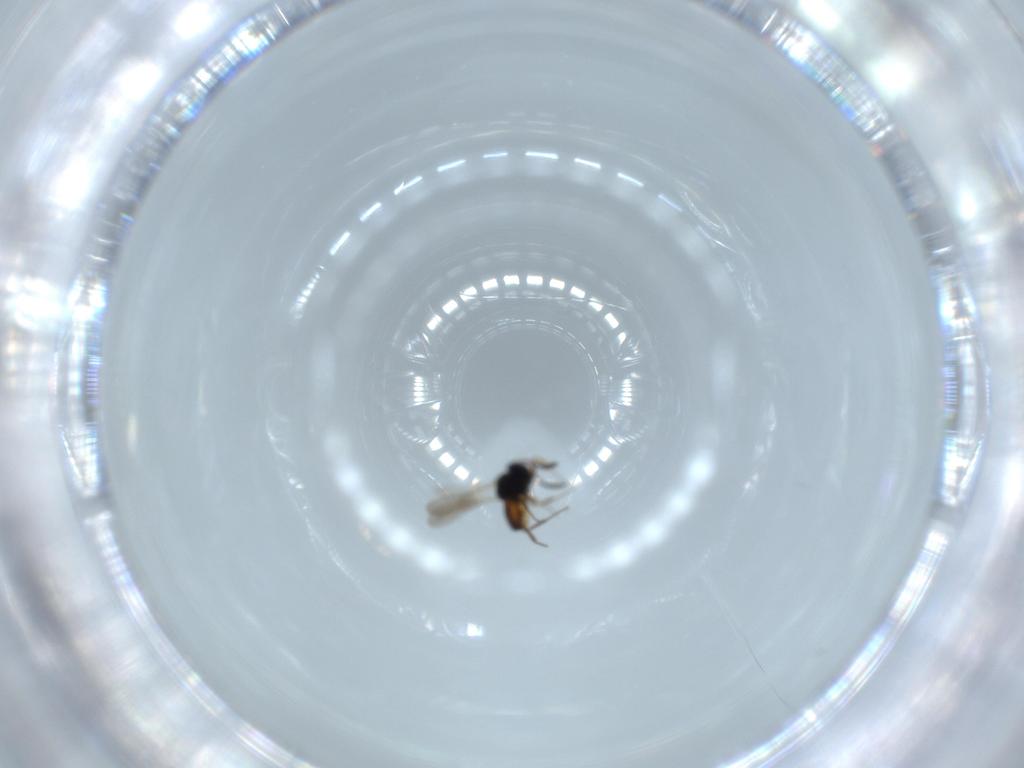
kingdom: Animalia
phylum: Arthropoda
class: Insecta
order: Hymenoptera
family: Scelionidae
